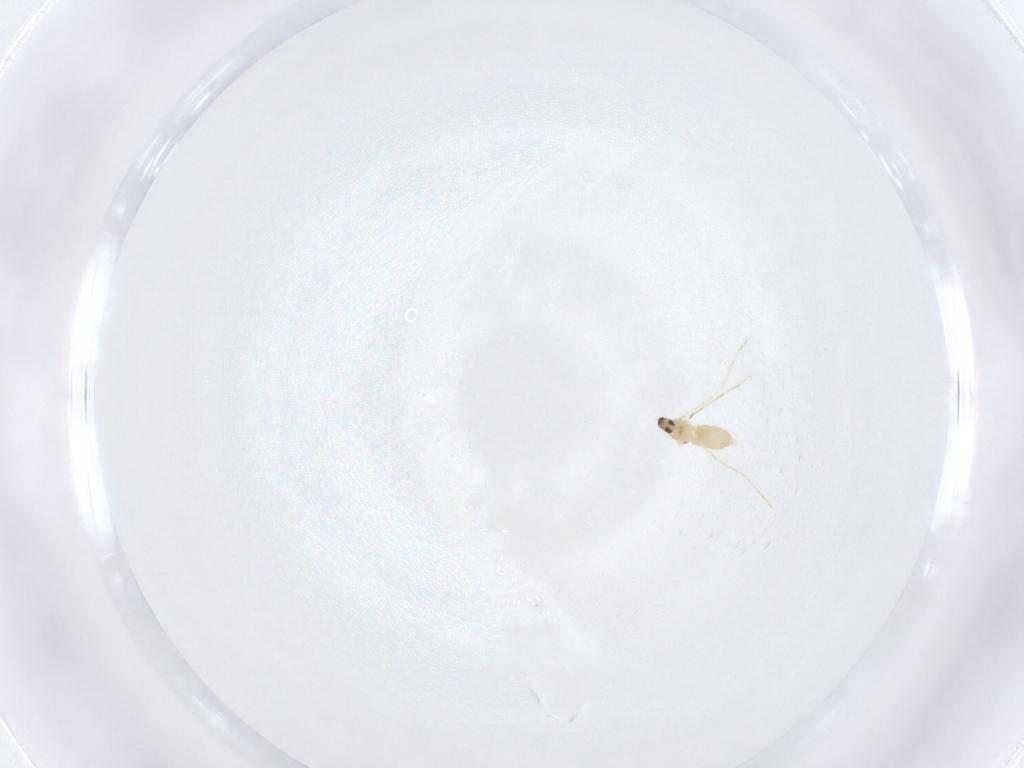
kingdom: Animalia
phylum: Arthropoda
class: Insecta
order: Diptera
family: Cecidomyiidae
